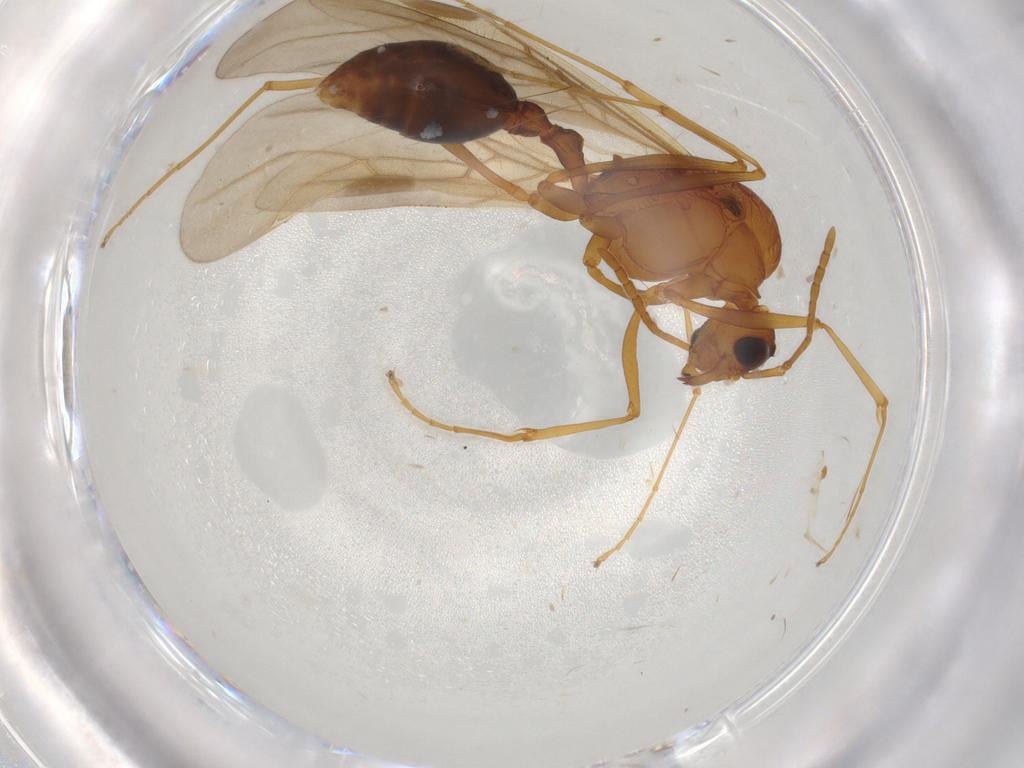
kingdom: Animalia
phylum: Arthropoda
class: Insecta
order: Hymenoptera
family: Formicidae
